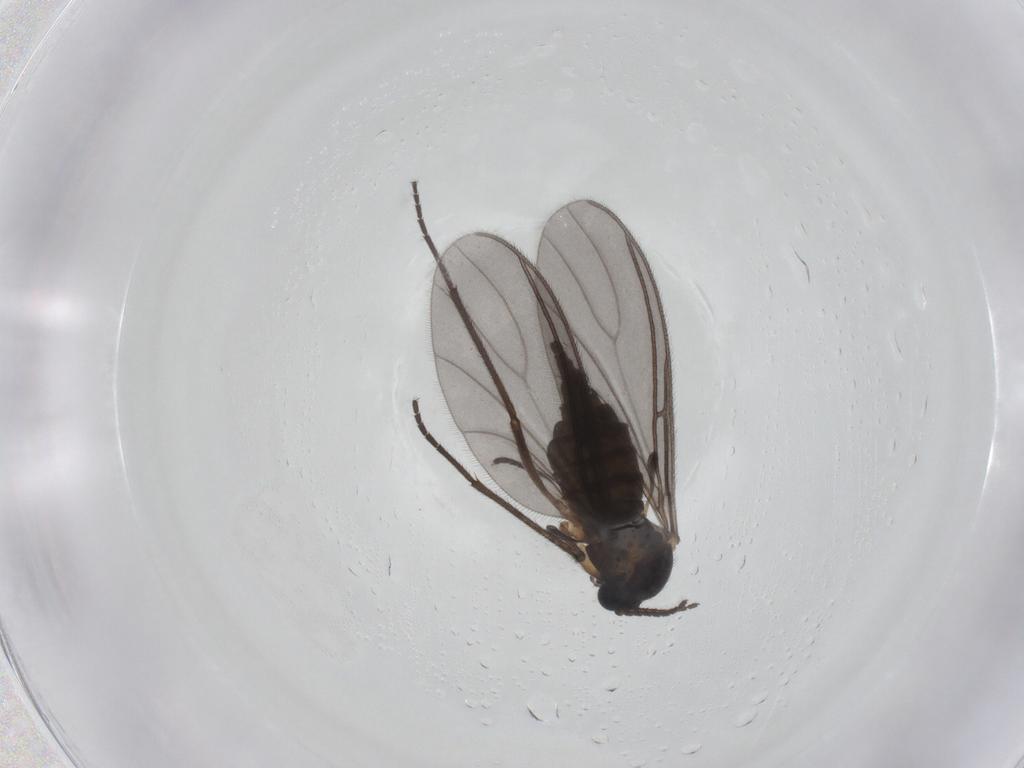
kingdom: Animalia
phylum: Arthropoda
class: Insecta
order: Diptera
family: Sciaridae
